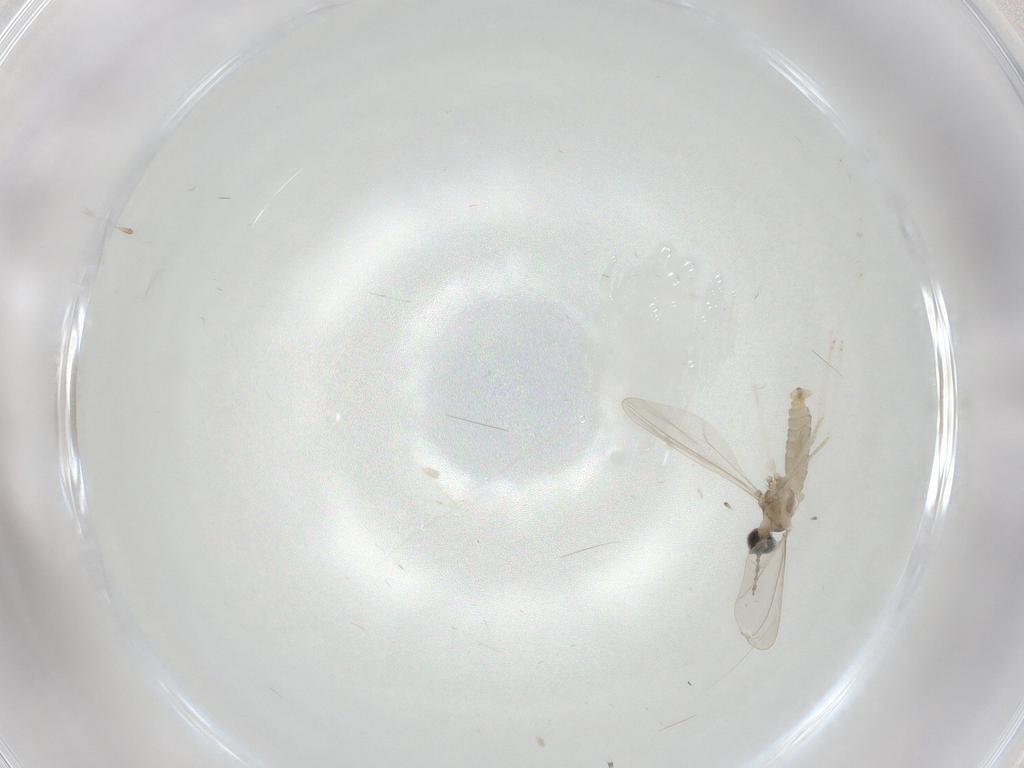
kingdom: Animalia
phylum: Arthropoda
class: Insecta
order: Diptera
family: Cecidomyiidae
